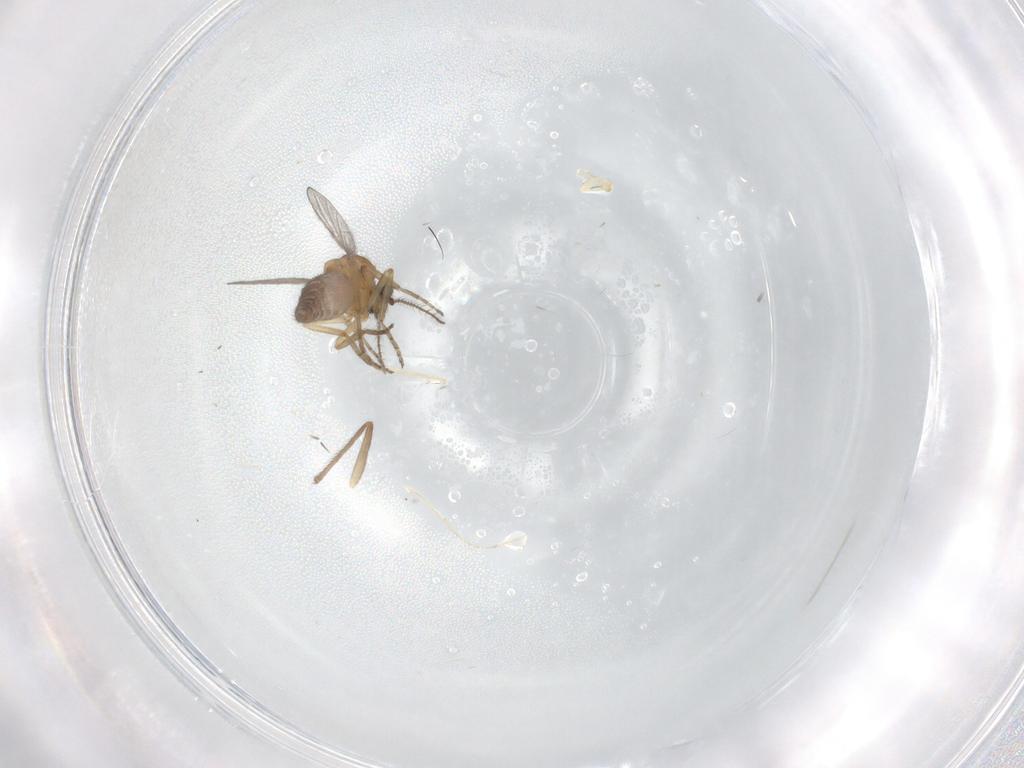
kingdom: Animalia
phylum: Arthropoda
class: Insecta
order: Diptera
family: Ceratopogonidae
